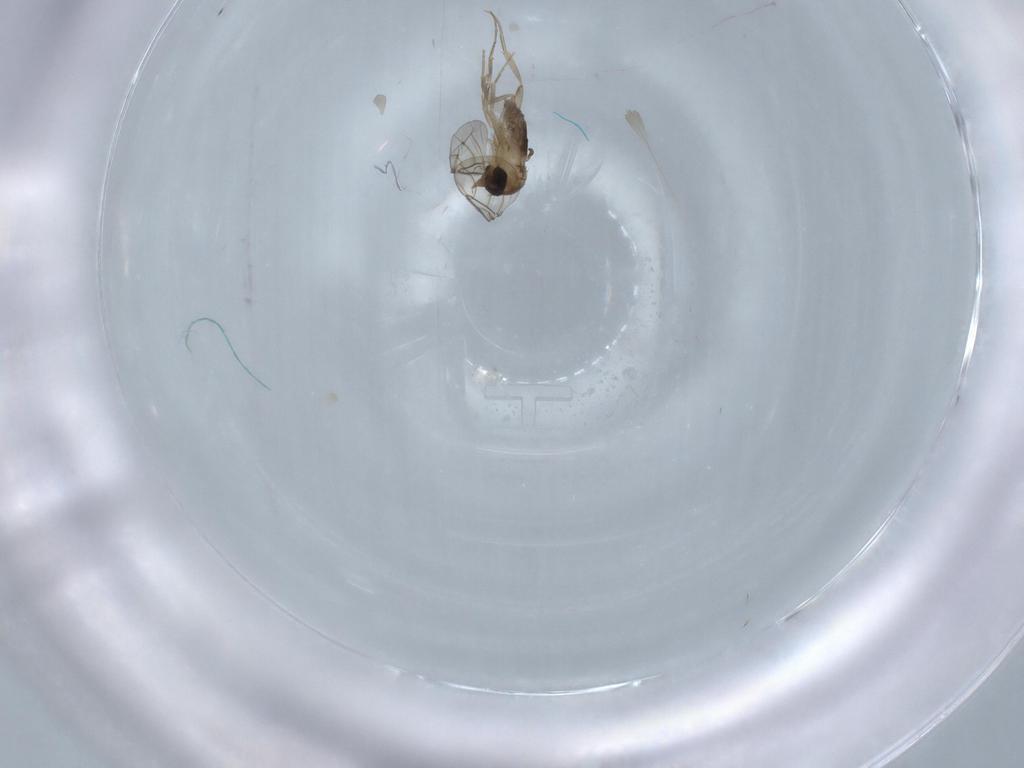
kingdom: Animalia
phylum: Arthropoda
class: Insecta
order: Diptera
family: Phoridae
